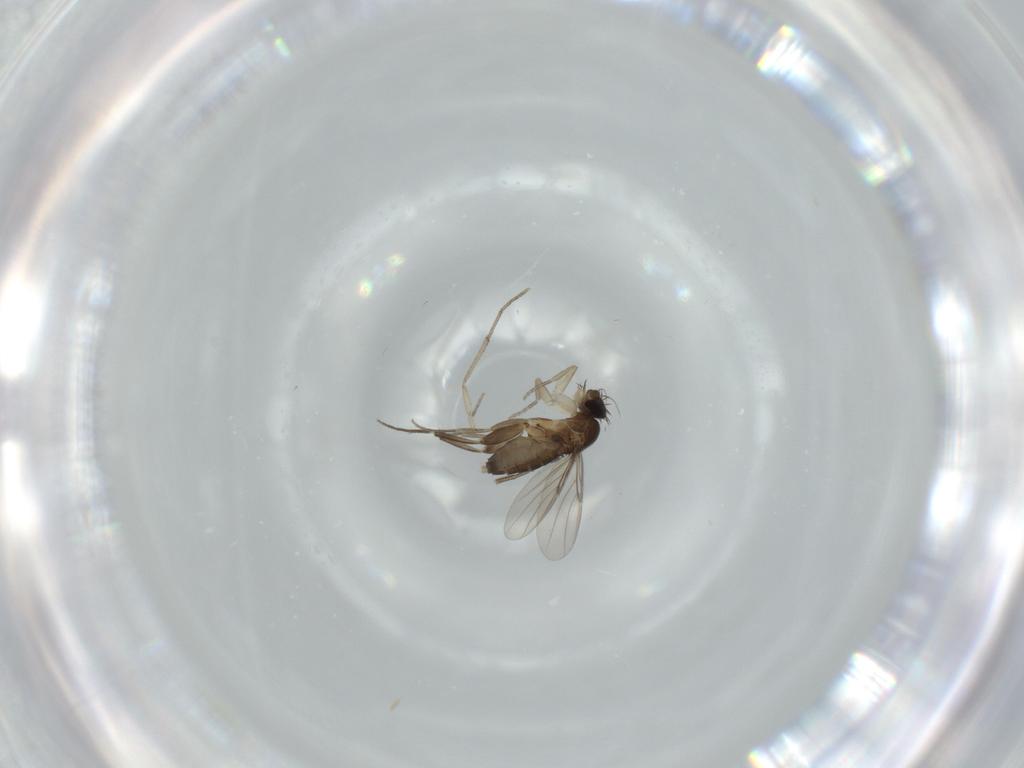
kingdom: Animalia
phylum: Arthropoda
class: Insecta
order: Diptera
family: Phoridae
